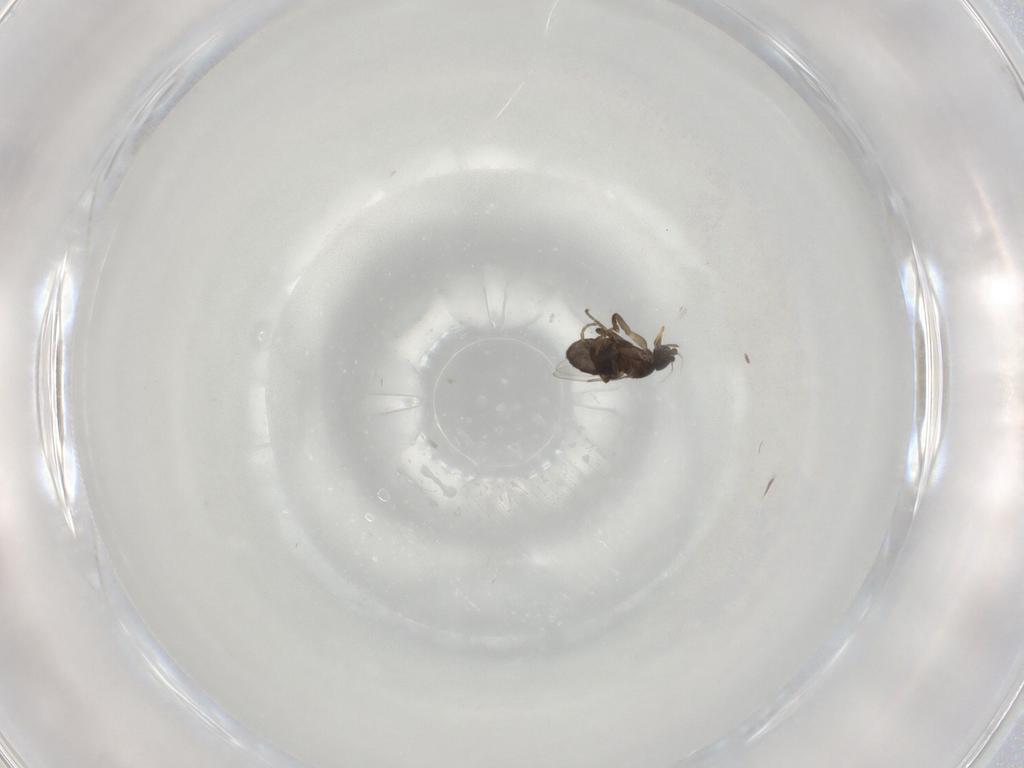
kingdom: Animalia
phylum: Arthropoda
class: Insecta
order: Diptera
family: Phoridae
